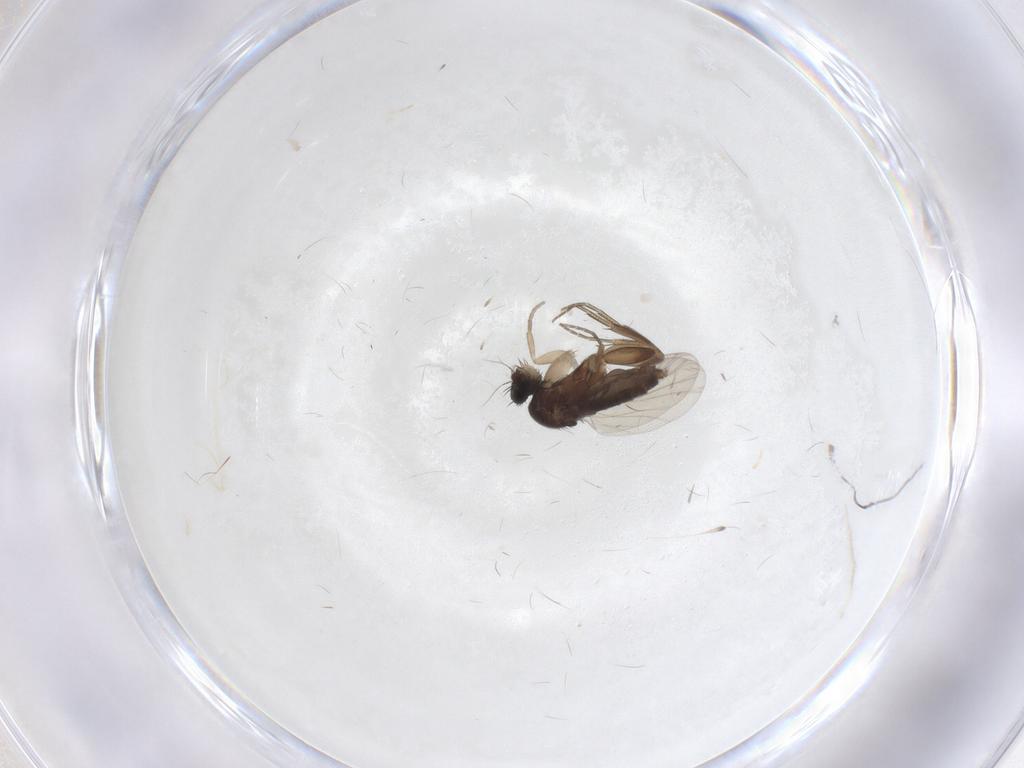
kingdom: Animalia
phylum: Arthropoda
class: Insecta
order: Diptera
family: Phoridae
